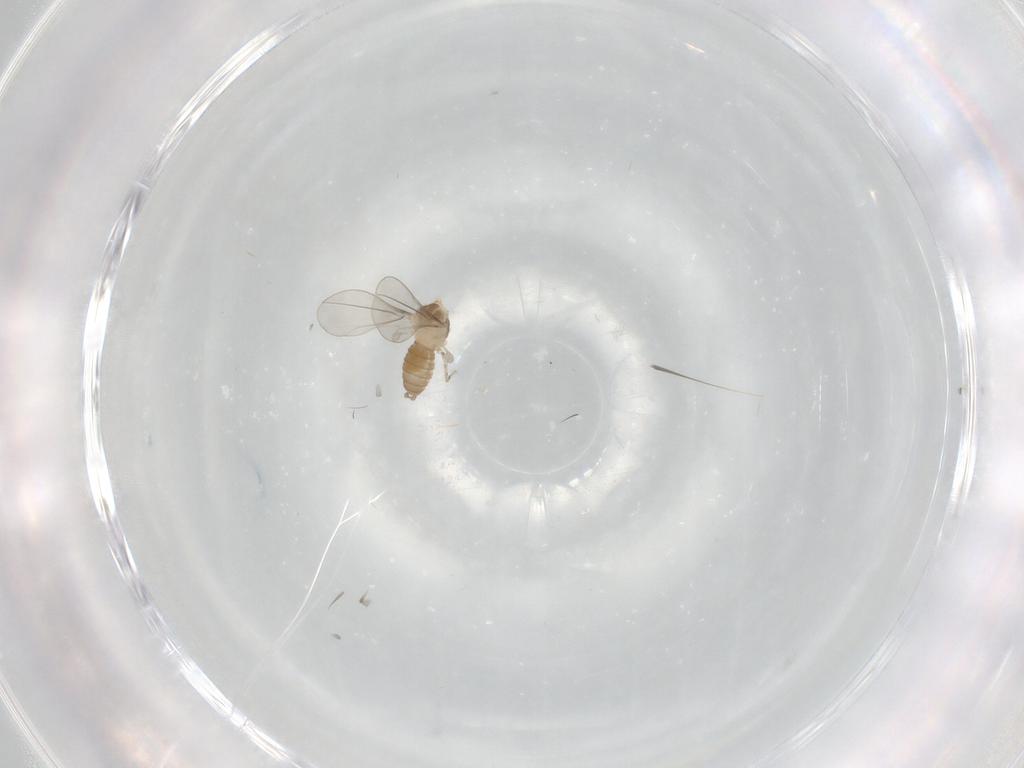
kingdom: Animalia
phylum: Arthropoda
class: Insecta
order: Diptera
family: Cecidomyiidae
